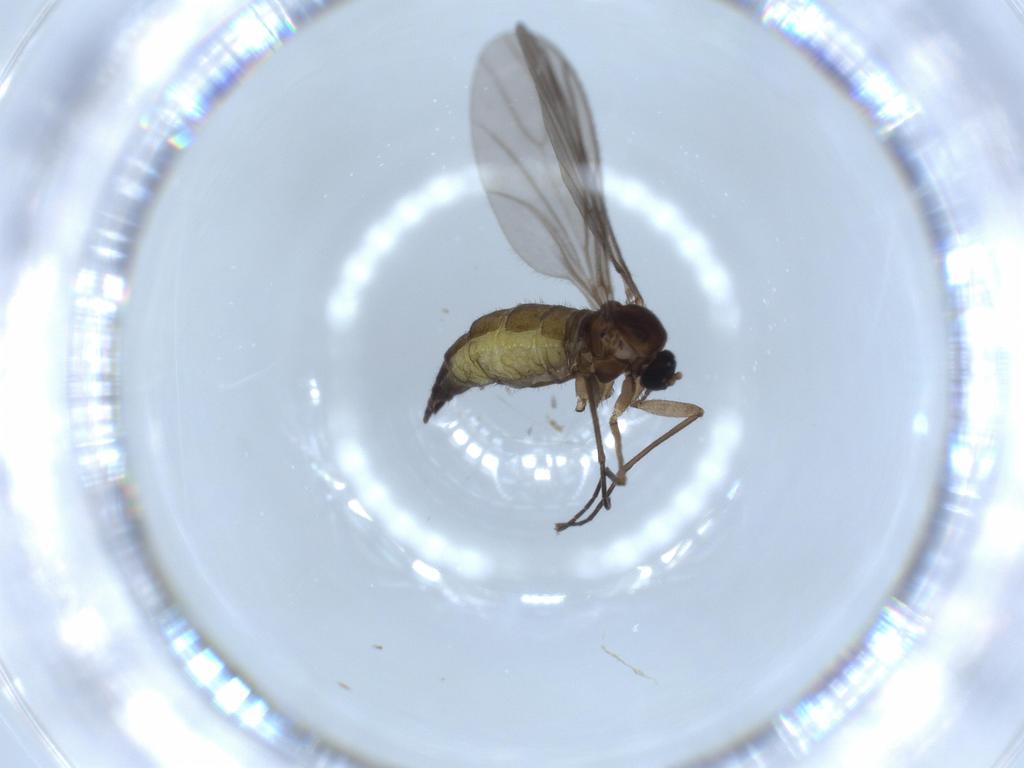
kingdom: Animalia
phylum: Arthropoda
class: Insecta
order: Diptera
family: Sciaridae
